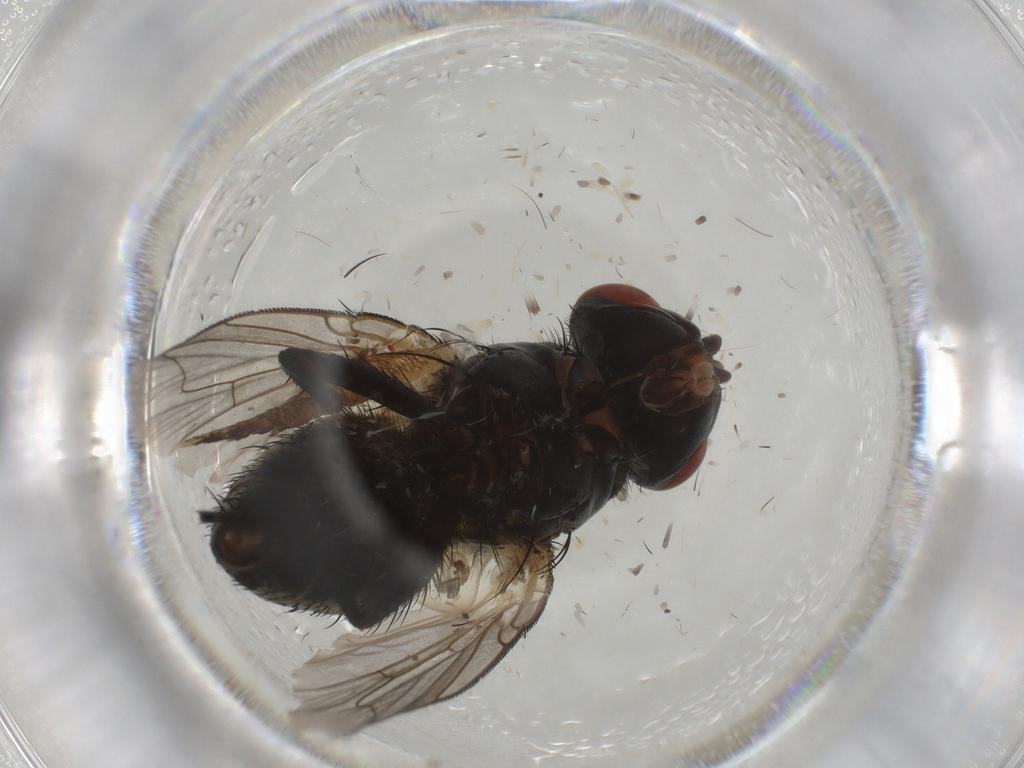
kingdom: Animalia
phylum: Arthropoda
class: Insecta
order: Diptera
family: Sarcophagidae
